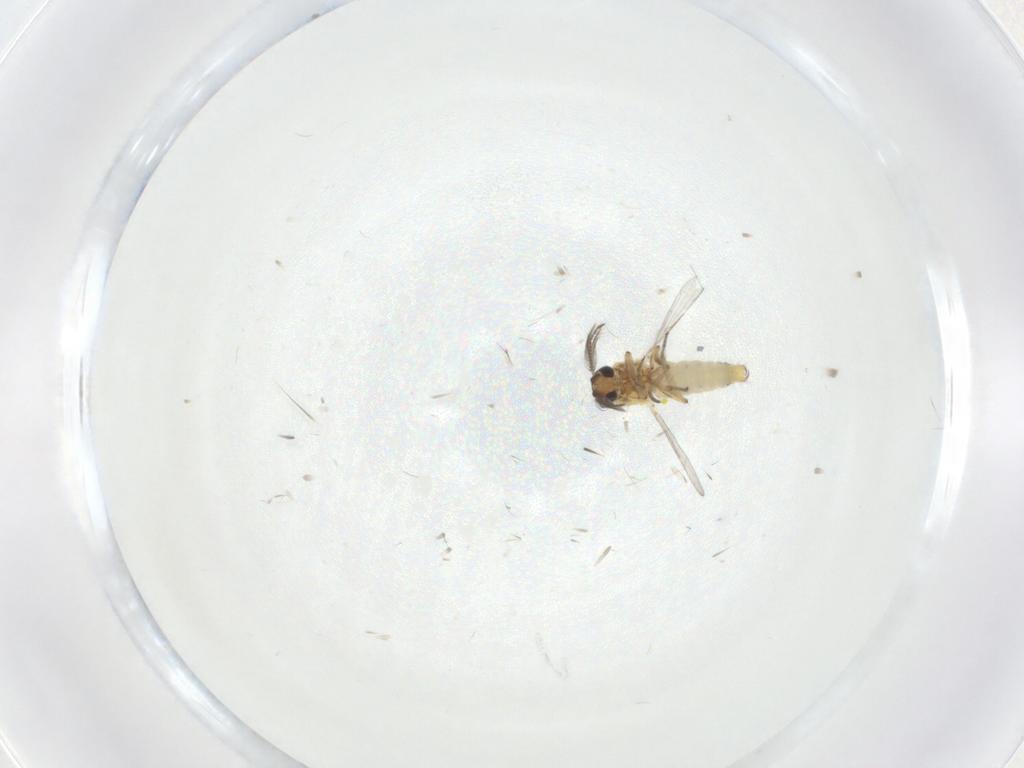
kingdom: Animalia
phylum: Arthropoda
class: Insecta
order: Diptera
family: Ceratopogonidae
